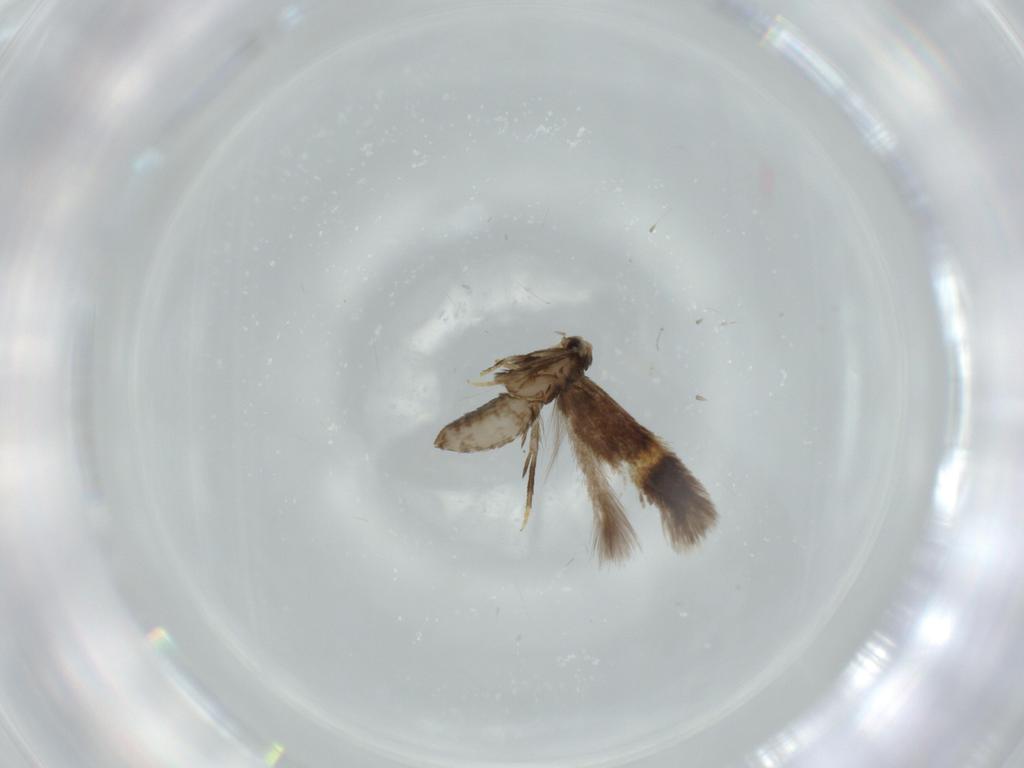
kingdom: Animalia
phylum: Arthropoda
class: Insecta
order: Lepidoptera
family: Nepticulidae
